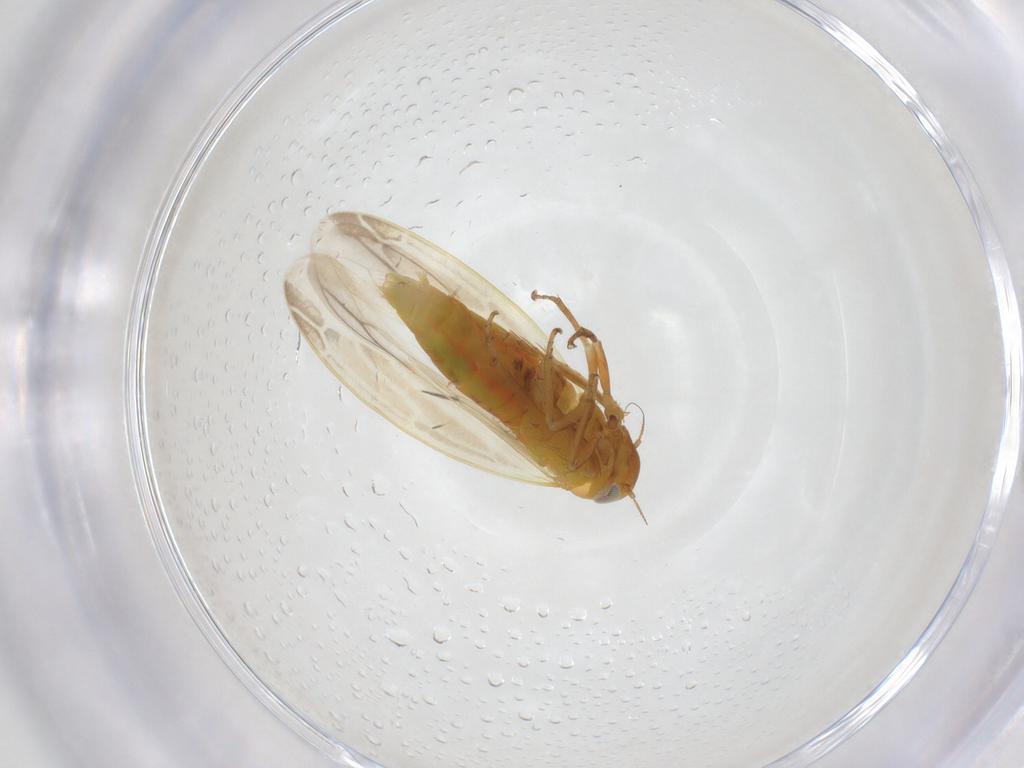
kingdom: Animalia
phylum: Arthropoda
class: Insecta
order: Hemiptera
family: Cicadellidae
